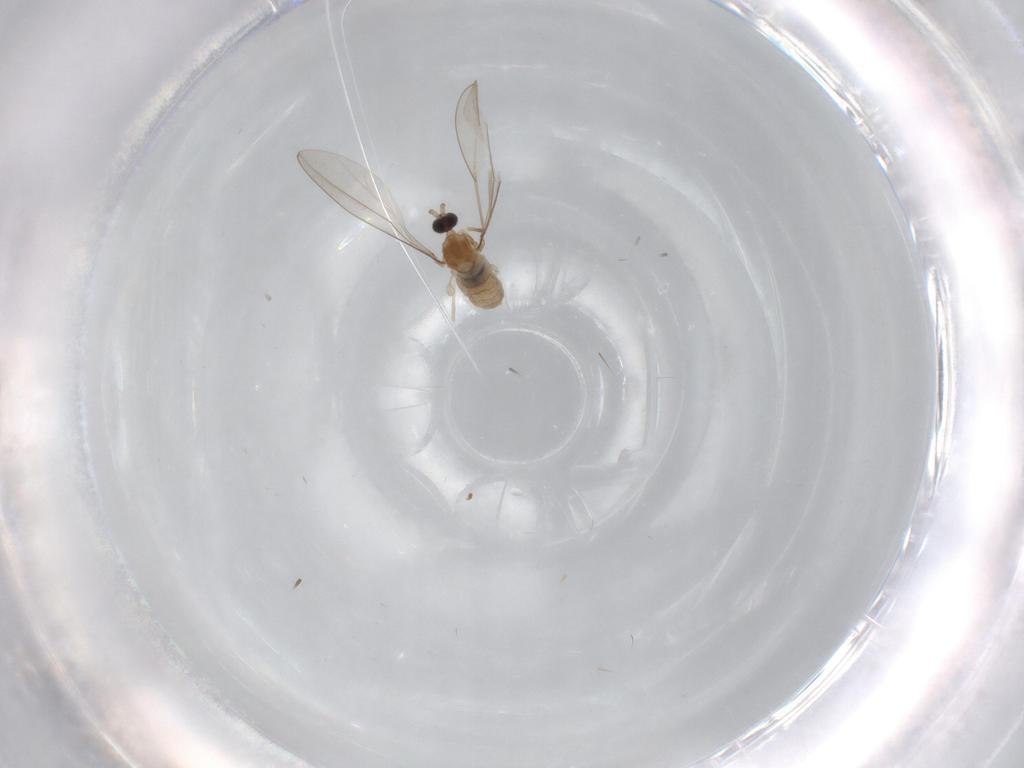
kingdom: Animalia
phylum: Arthropoda
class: Insecta
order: Diptera
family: Cecidomyiidae
